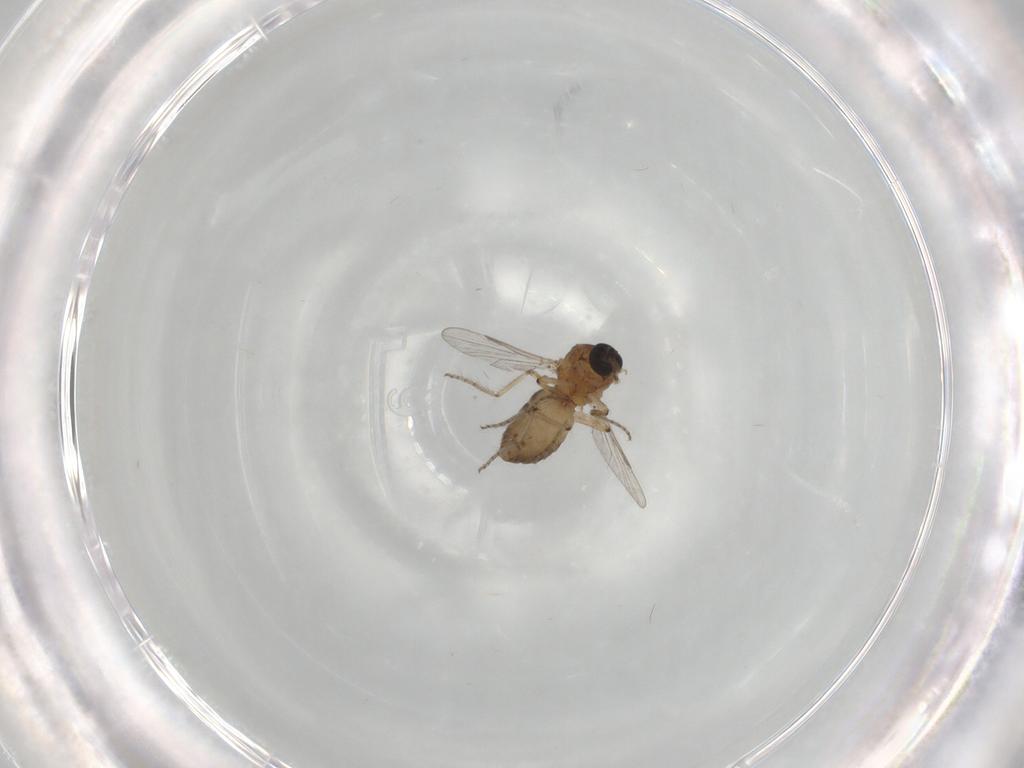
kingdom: Animalia
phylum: Arthropoda
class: Insecta
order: Diptera
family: Ceratopogonidae
